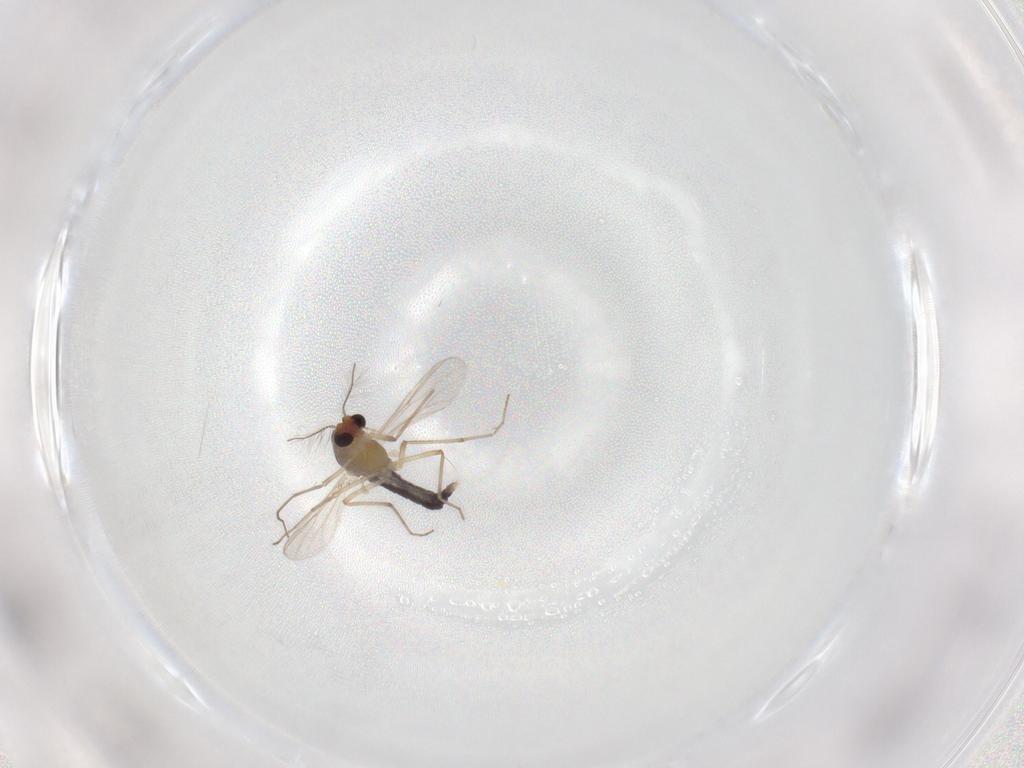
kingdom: Animalia
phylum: Arthropoda
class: Insecta
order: Diptera
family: Chironomidae
